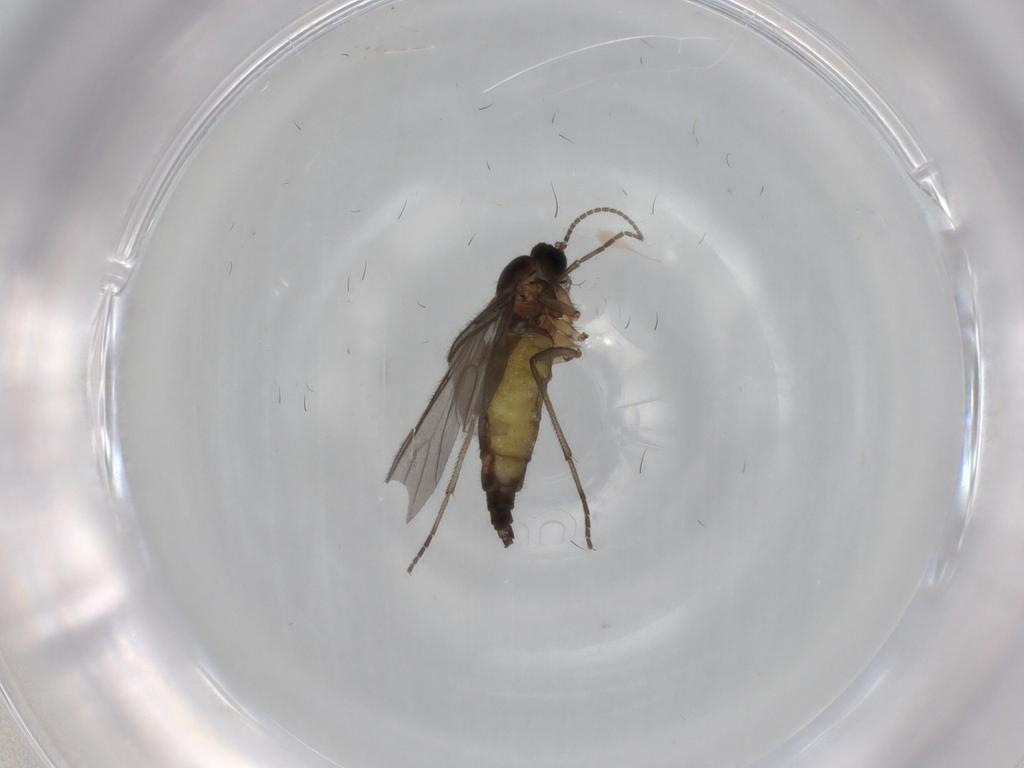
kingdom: Animalia
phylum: Arthropoda
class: Insecta
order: Diptera
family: Sciaridae
